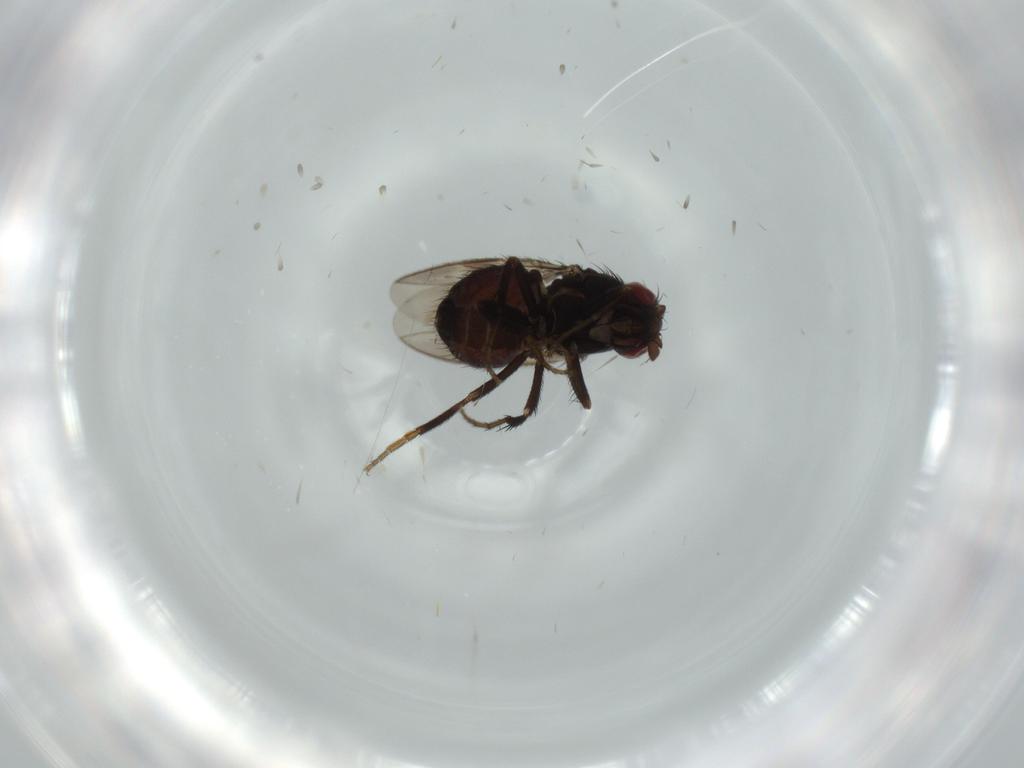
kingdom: Animalia
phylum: Arthropoda
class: Insecta
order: Diptera
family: Sphaeroceridae
